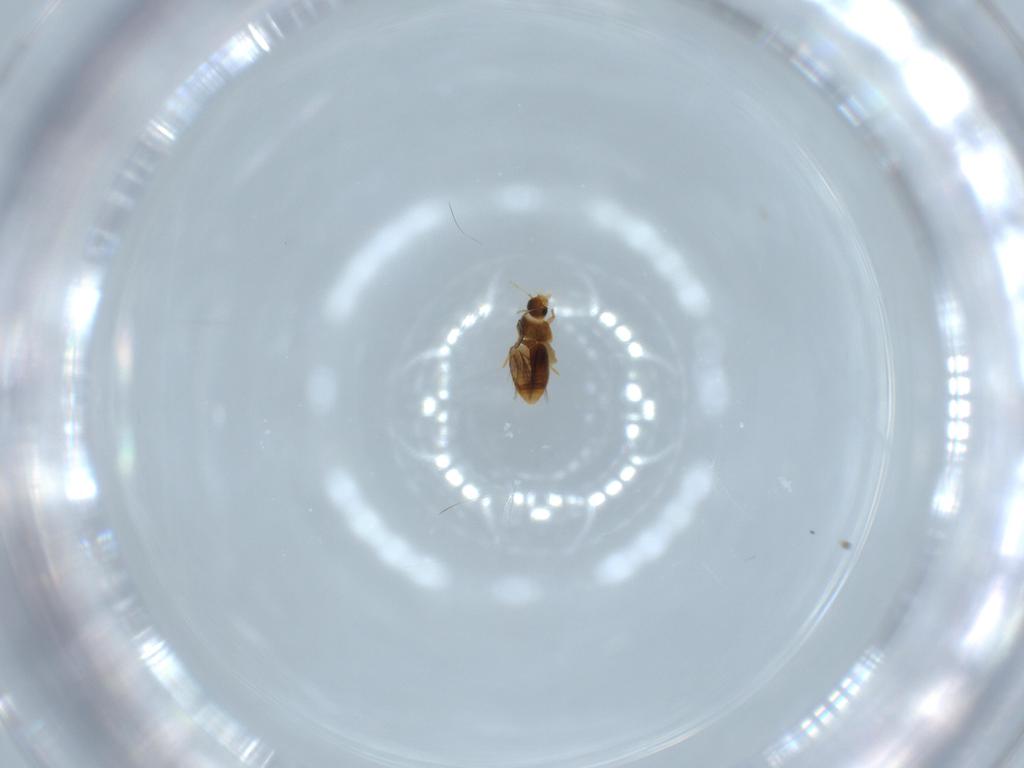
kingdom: Animalia
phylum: Arthropoda
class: Insecta
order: Coleoptera
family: Ptiliidae
